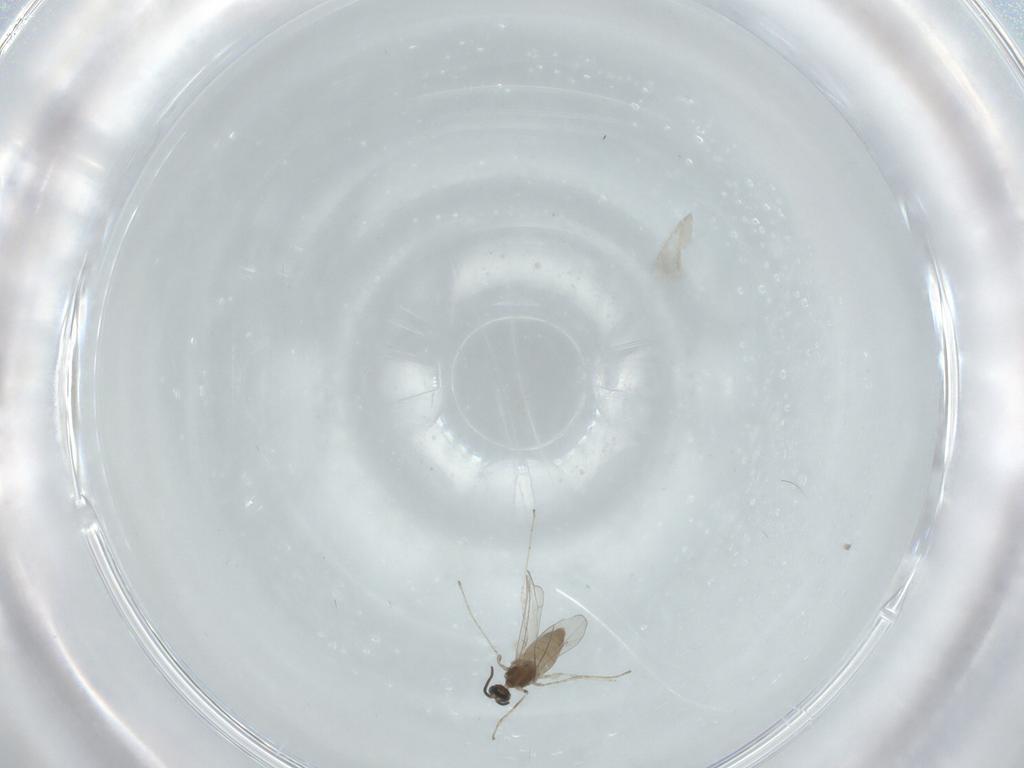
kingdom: Animalia
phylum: Arthropoda
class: Insecta
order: Diptera
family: Cecidomyiidae
